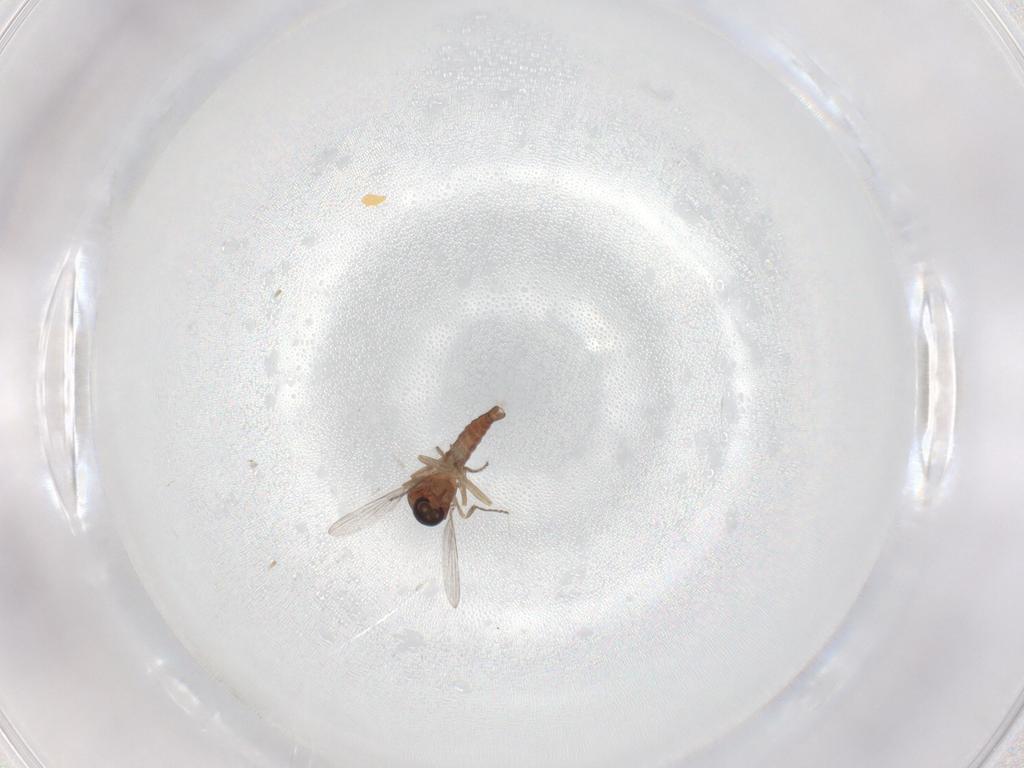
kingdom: Animalia
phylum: Arthropoda
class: Insecta
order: Diptera
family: Ceratopogonidae
